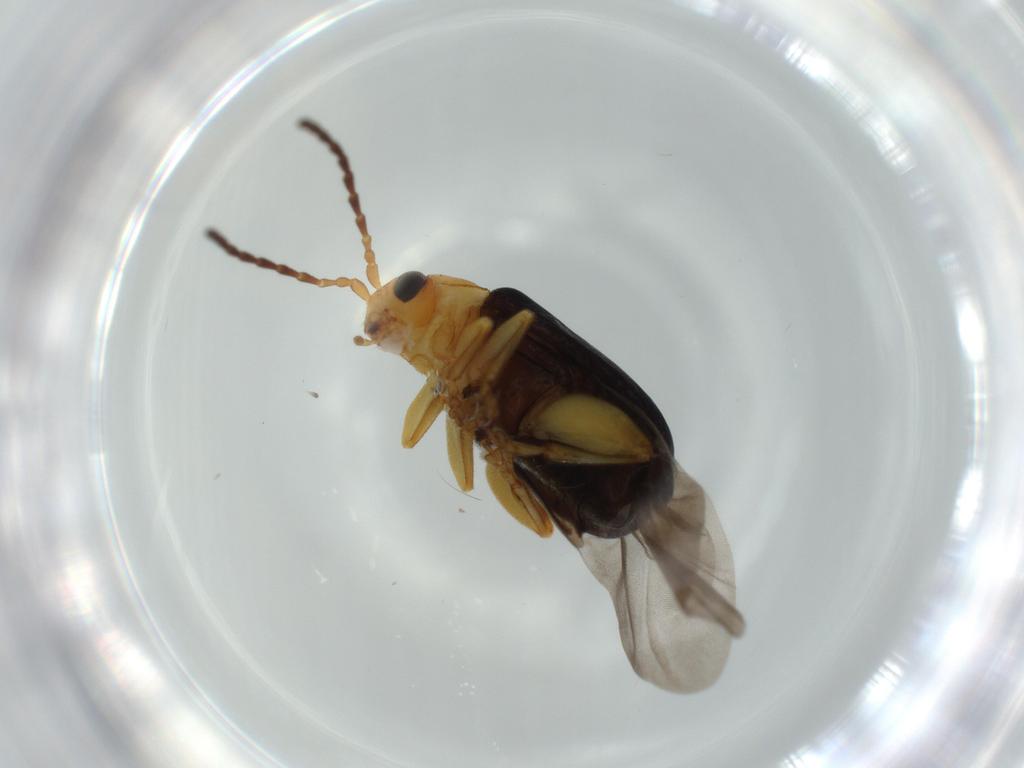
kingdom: Animalia
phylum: Arthropoda
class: Insecta
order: Coleoptera
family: Chrysomelidae
